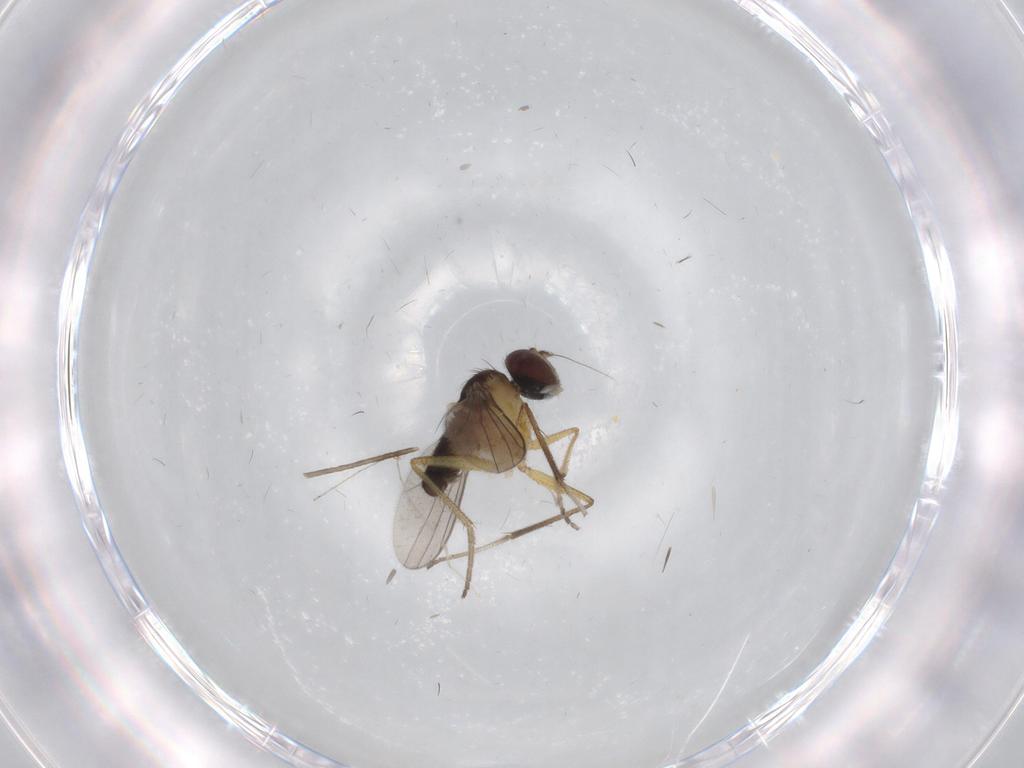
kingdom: Animalia
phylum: Arthropoda
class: Insecta
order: Diptera
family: Dolichopodidae
